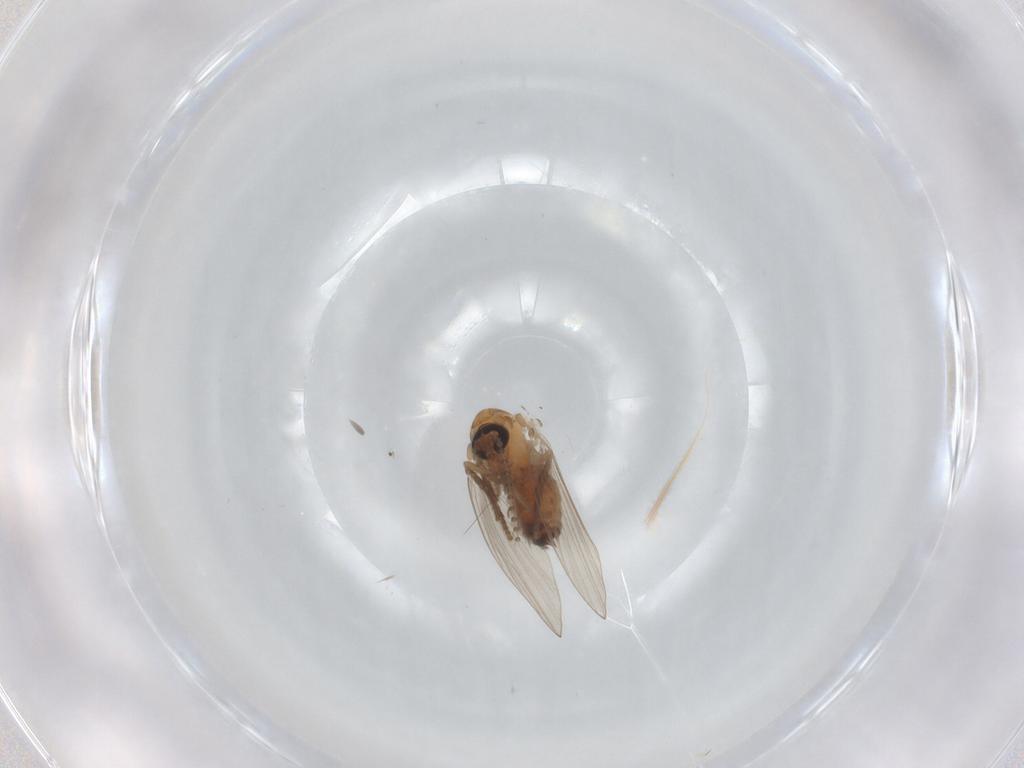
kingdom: Animalia
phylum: Arthropoda
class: Insecta
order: Diptera
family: Psychodidae
